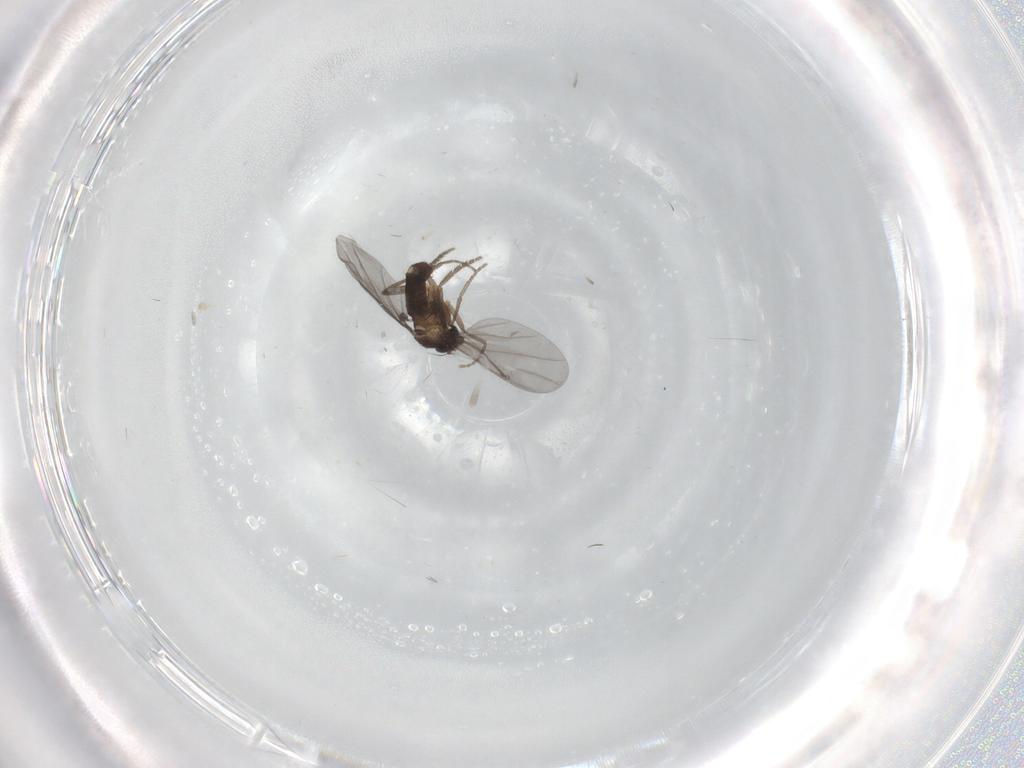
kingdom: Animalia
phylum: Arthropoda
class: Insecta
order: Diptera
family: Phoridae
